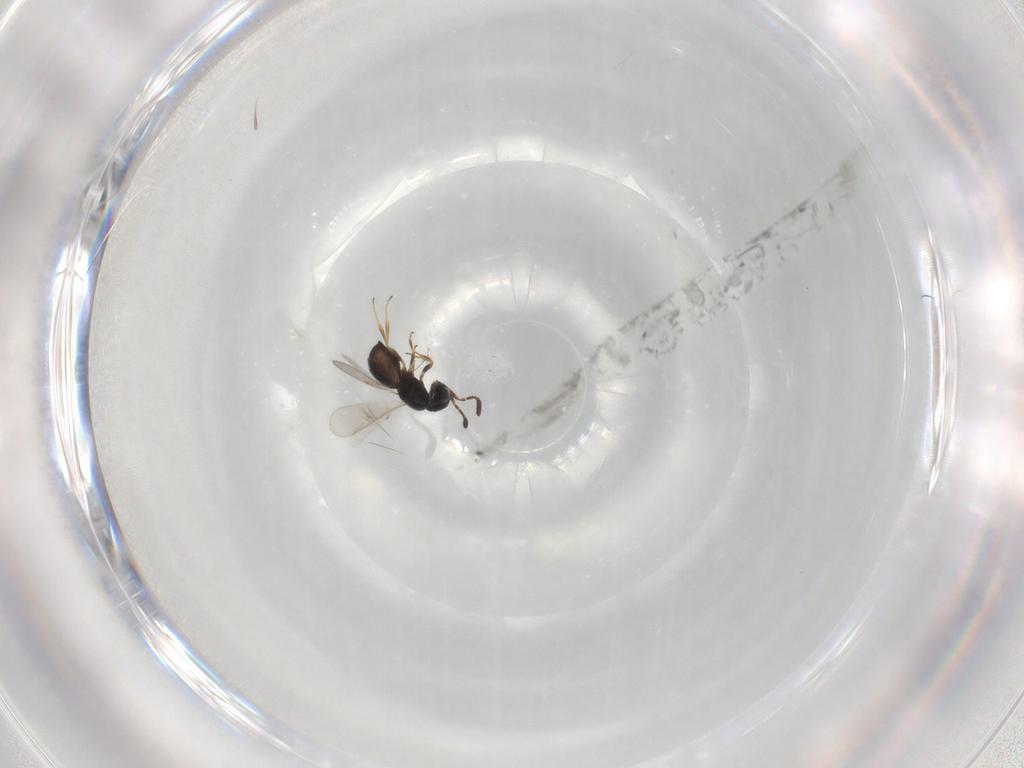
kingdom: Animalia
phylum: Arthropoda
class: Insecta
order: Hymenoptera
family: Scelionidae
